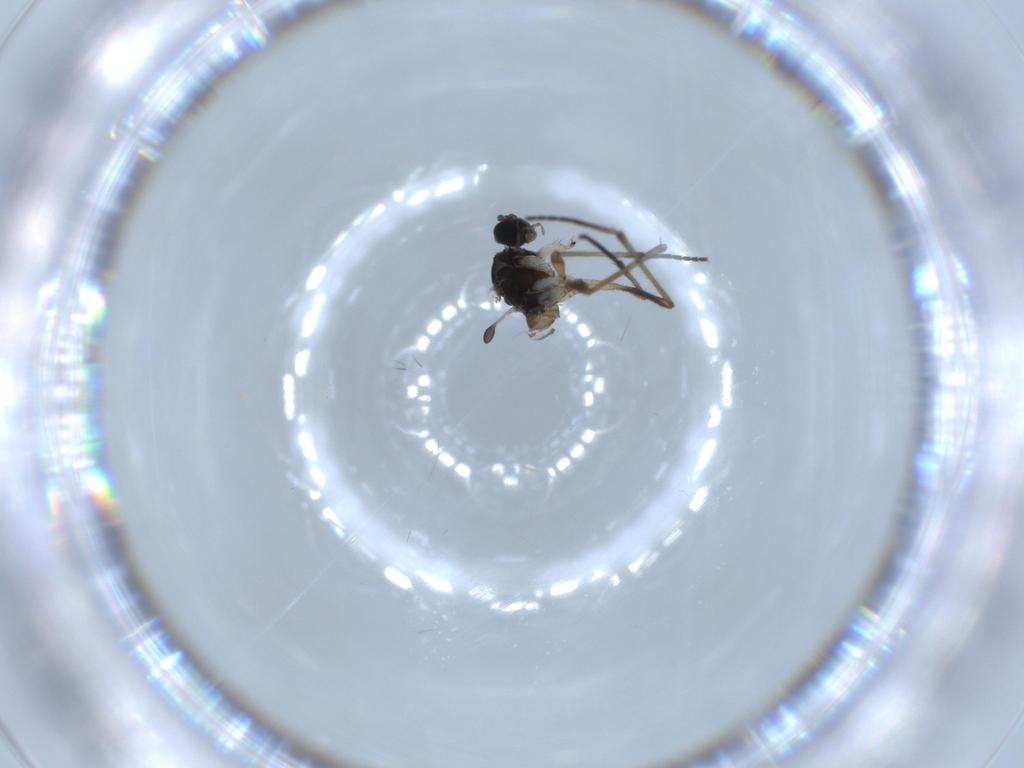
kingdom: Animalia
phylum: Arthropoda
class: Insecta
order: Diptera
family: Sciaridae
